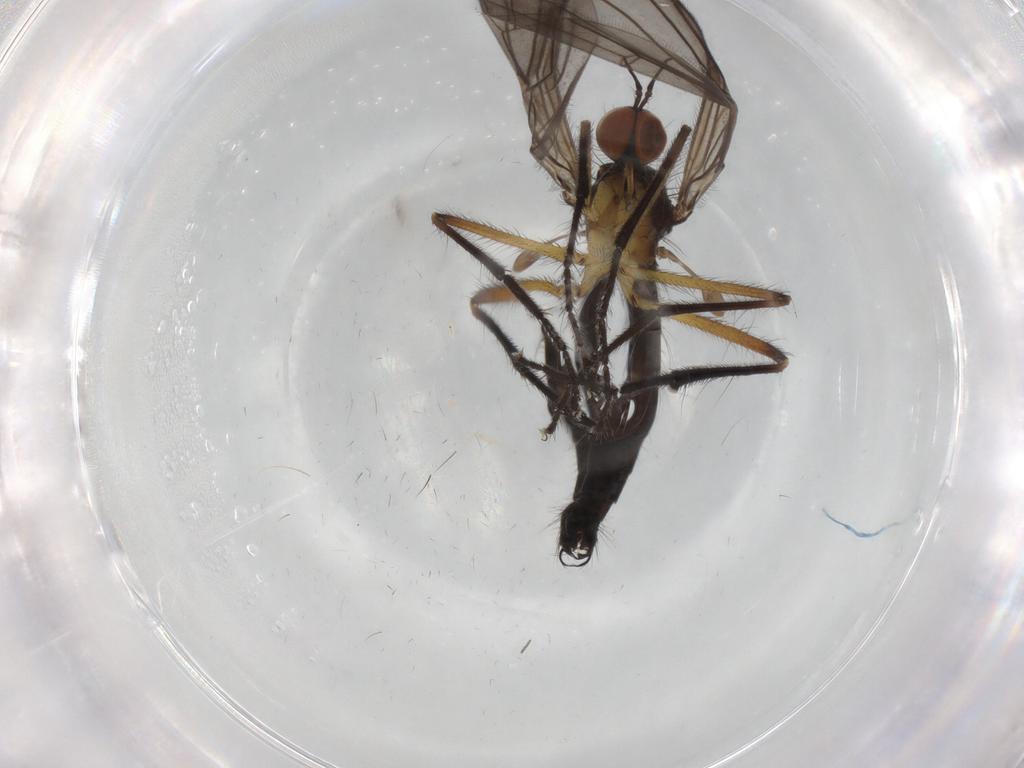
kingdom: Animalia
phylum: Arthropoda
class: Insecta
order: Diptera
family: Empididae
